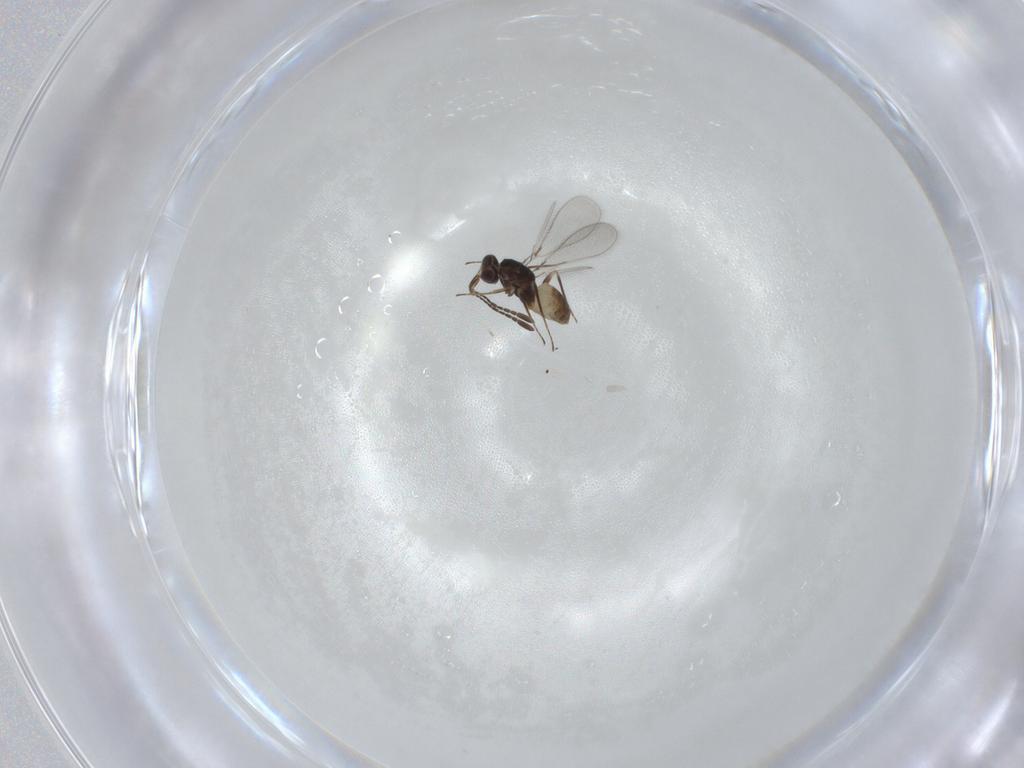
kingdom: Animalia
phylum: Arthropoda
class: Insecta
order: Hymenoptera
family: Mymaridae
